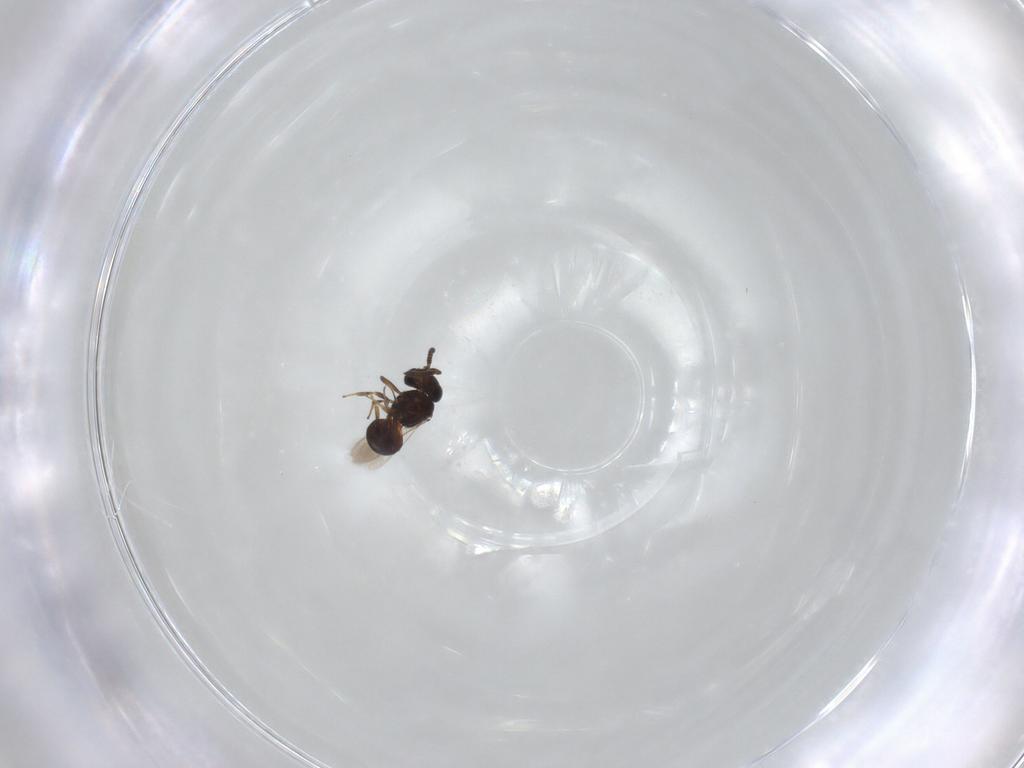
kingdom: Animalia
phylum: Arthropoda
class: Insecta
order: Hymenoptera
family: Scelionidae
